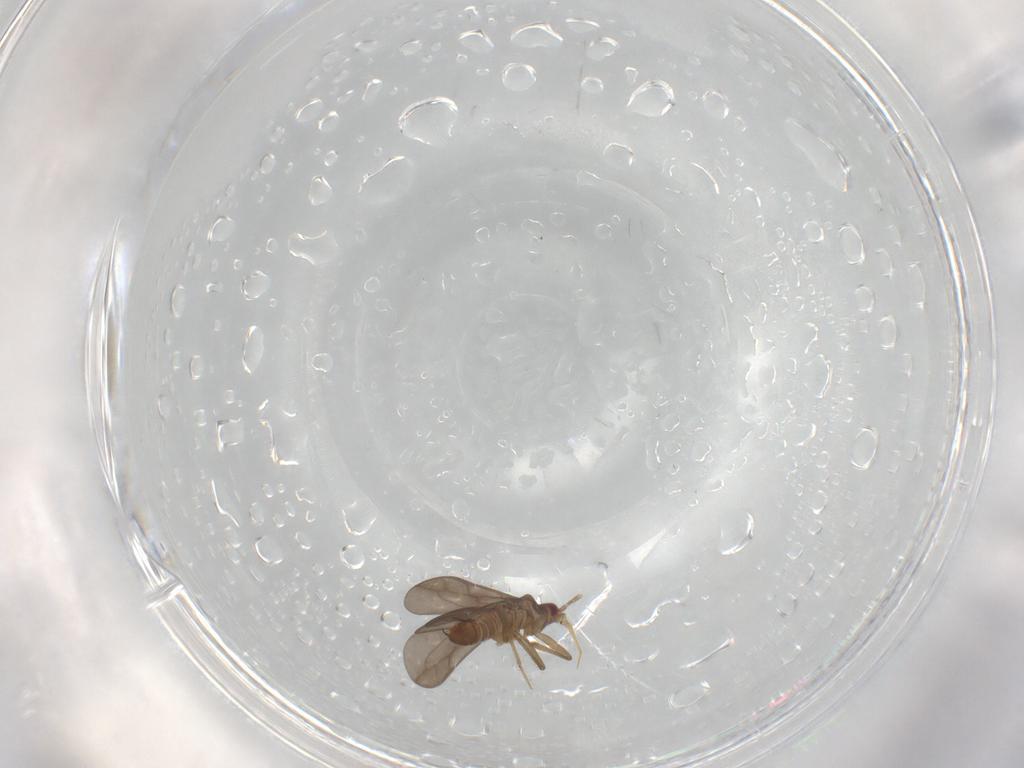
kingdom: Animalia
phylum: Arthropoda
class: Insecta
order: Hemiptera
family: Ceratocombidae
